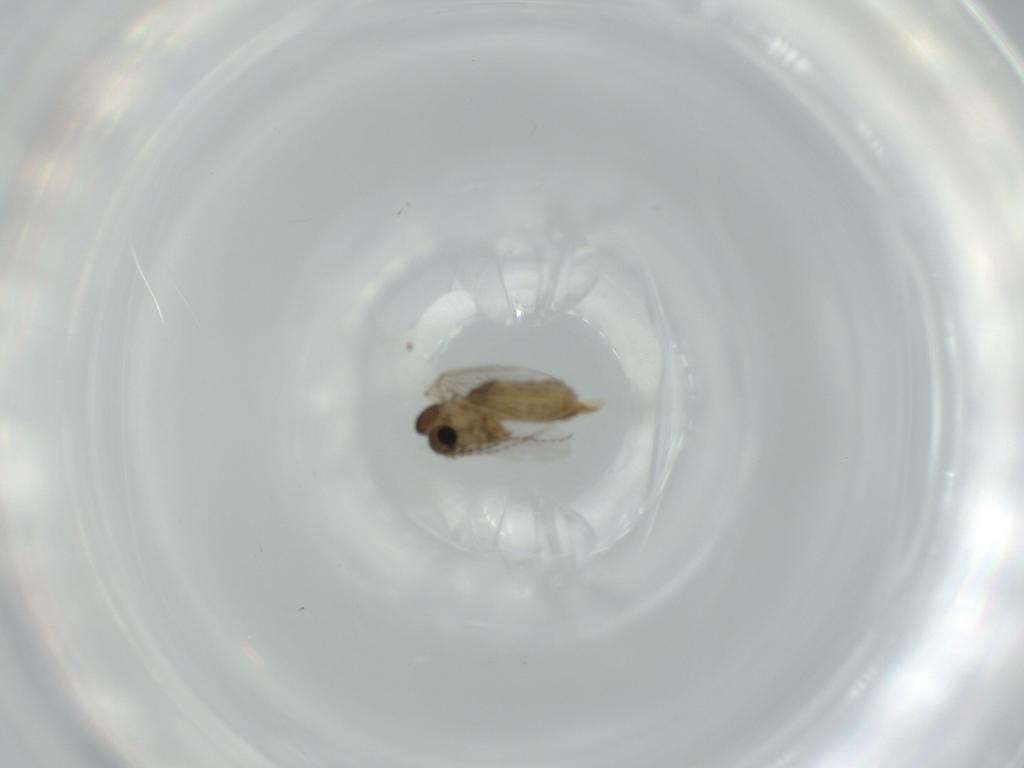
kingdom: Animalia
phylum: Arthropoda
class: Insecta
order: Diptera
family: Psychodidae
